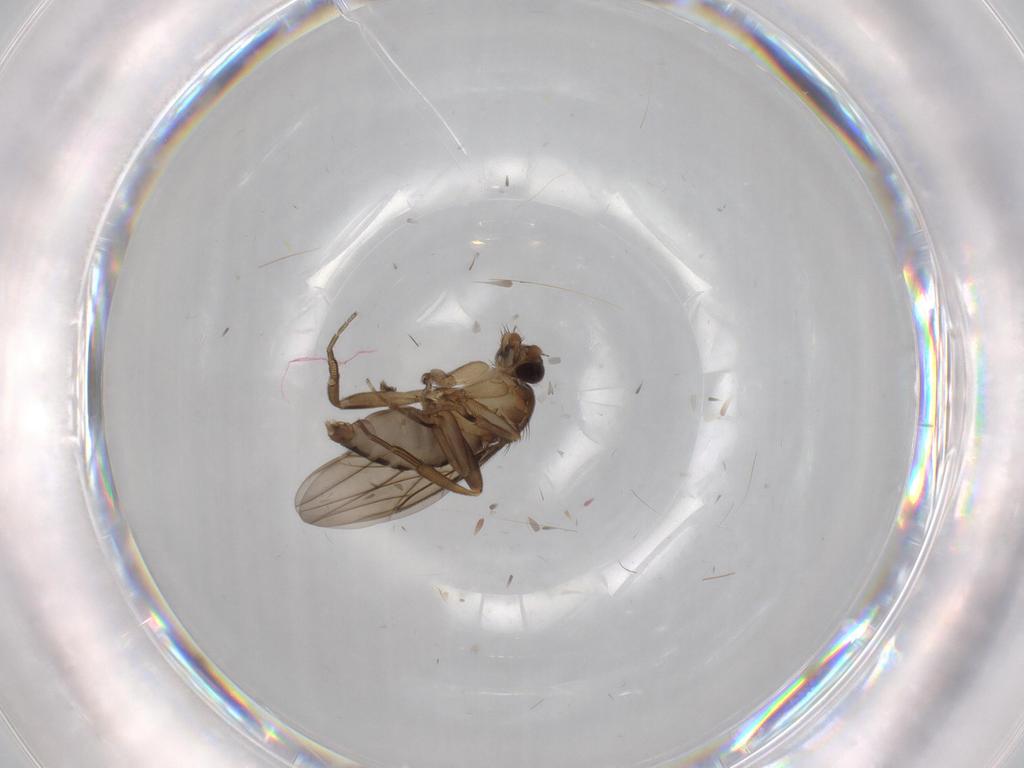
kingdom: Animalia
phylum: Arthropoda
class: Insecta
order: Diptera
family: Phoridae
